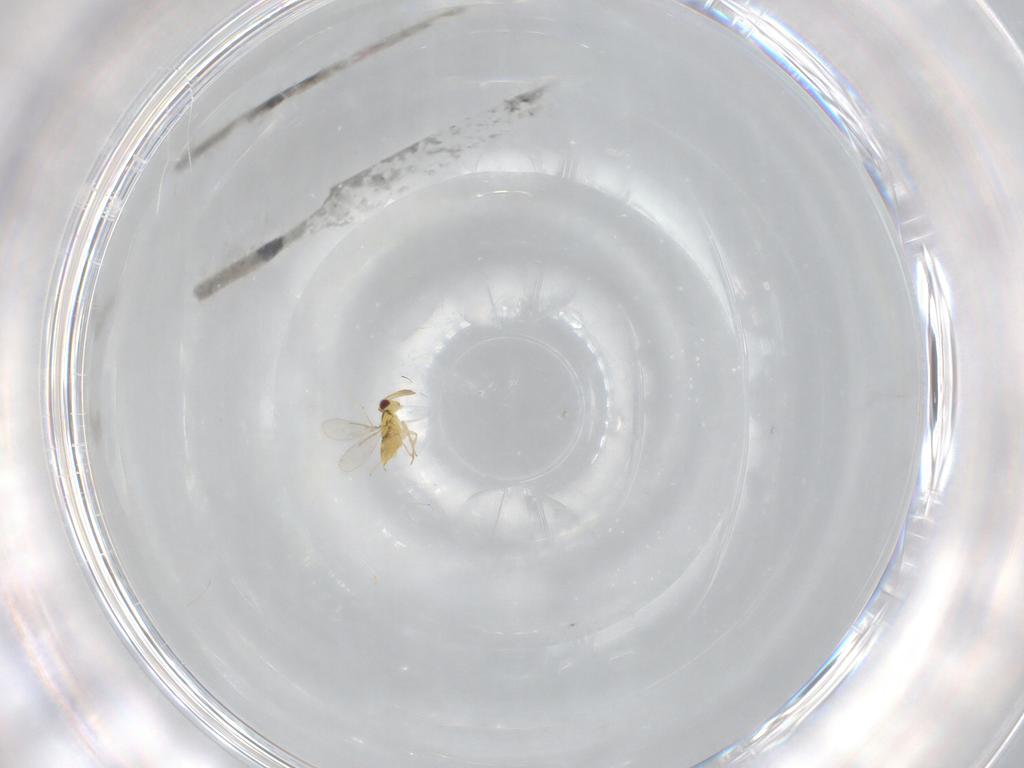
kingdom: Animalia
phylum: Arthropoda
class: Insecta
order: Hymenoptera
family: Aphelinidae
